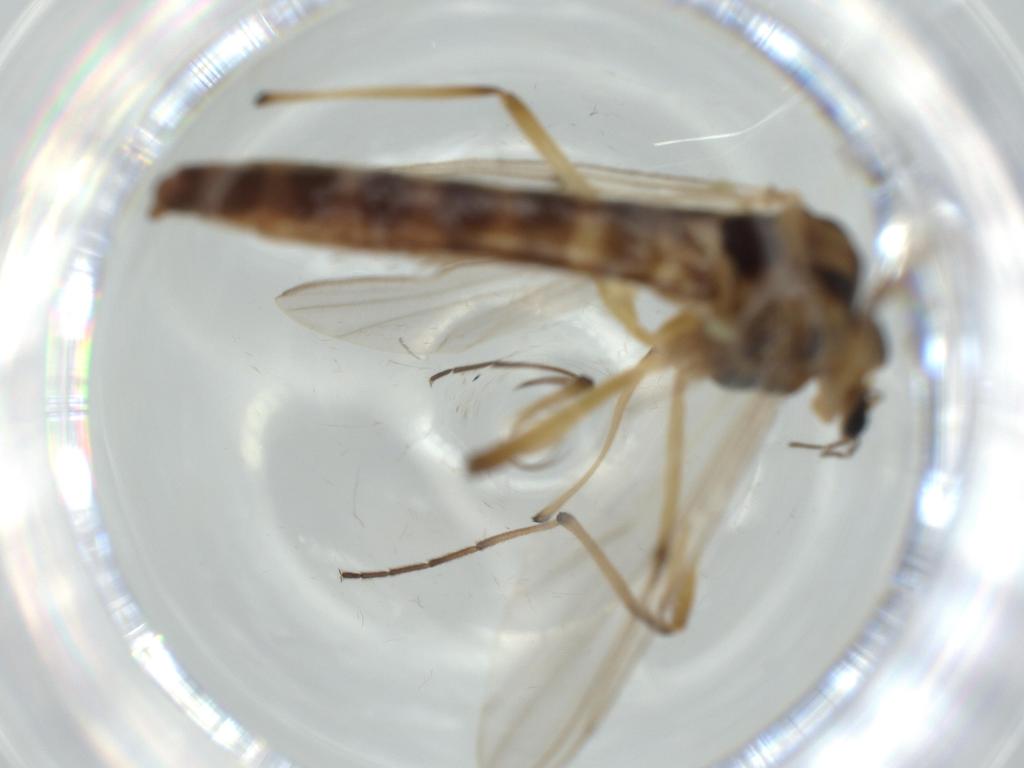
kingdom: Animalia
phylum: Arthropoda
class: Insecta
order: Diptera
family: Chironomidae
